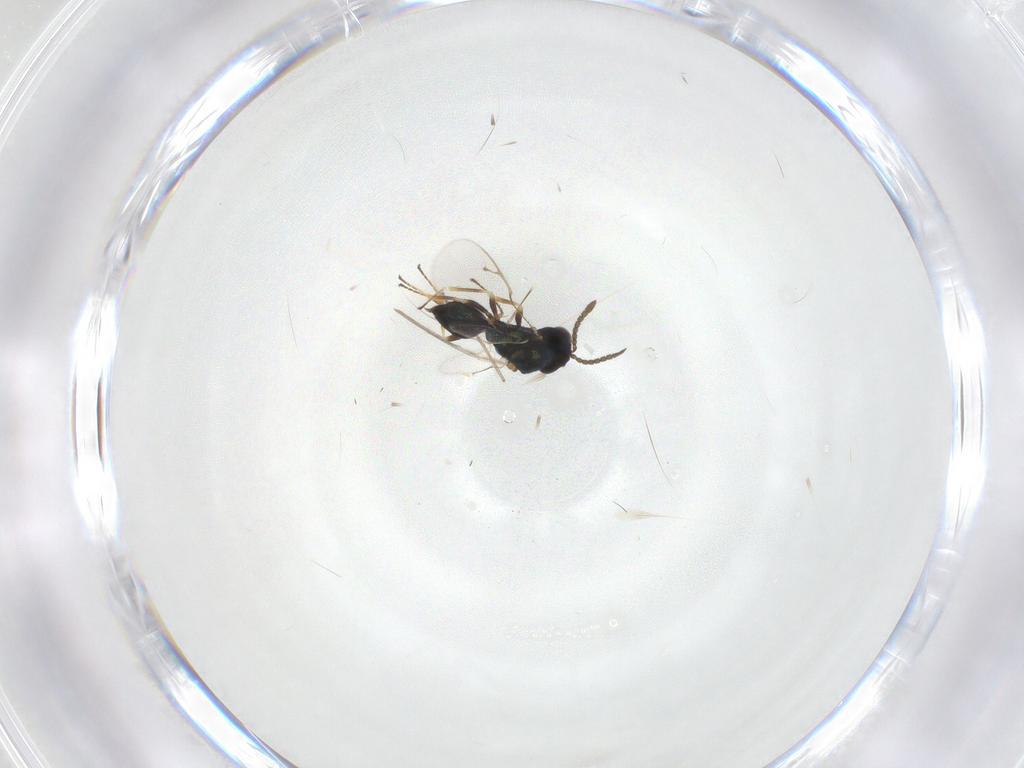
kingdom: Animalia
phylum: Arthropoda
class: Insecta
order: Hymenoptera
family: Pteromalidae
